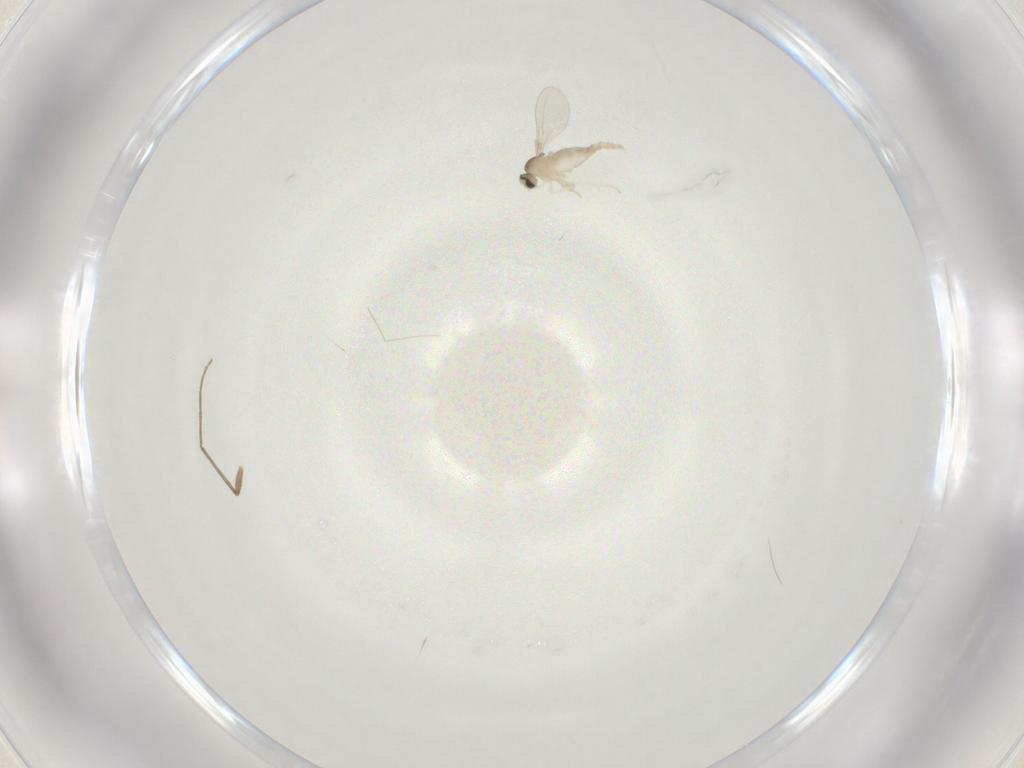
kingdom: Animalia
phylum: Arthropoda
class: Insecta
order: Diptera
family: Cecidomyiidae
